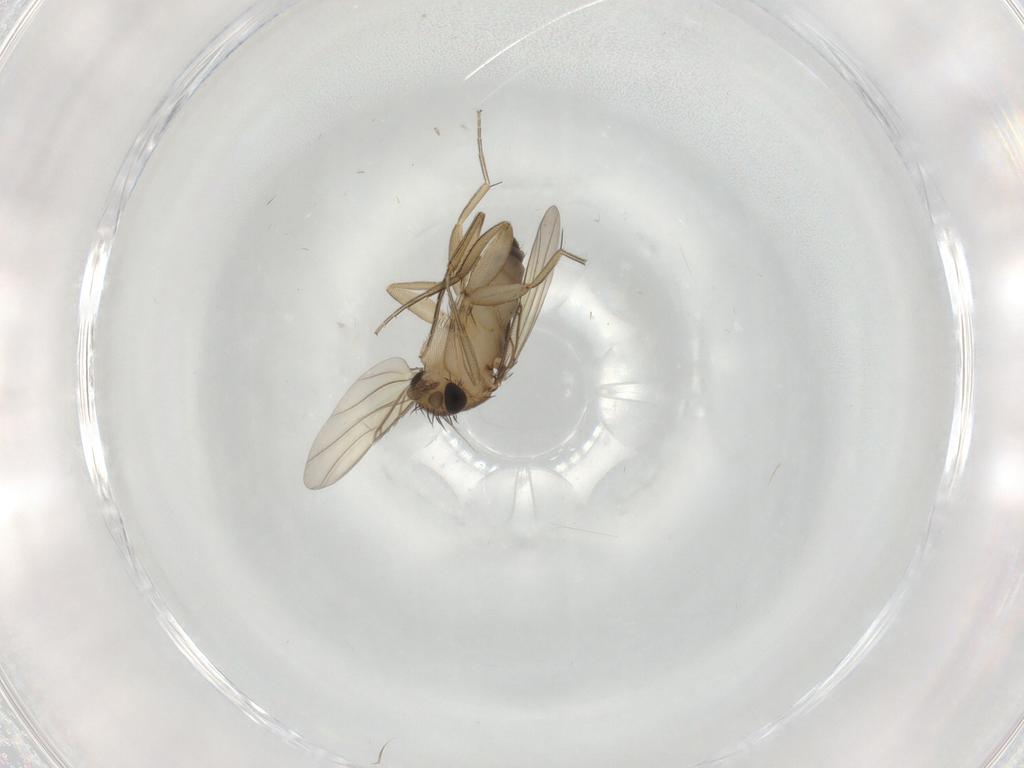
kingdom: Animalia
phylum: Arthropoda
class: Insecta
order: Diptera
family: Phoridae
